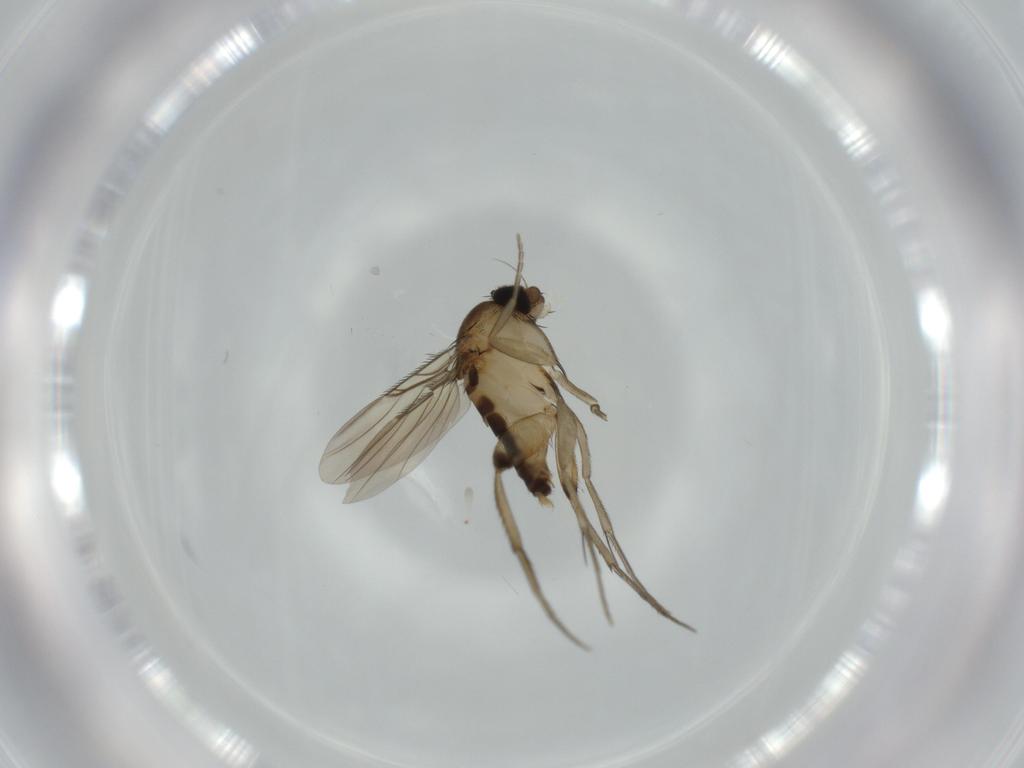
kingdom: Animalia
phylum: Arthropoda
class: Insecta
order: Diptera
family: Phoridae
